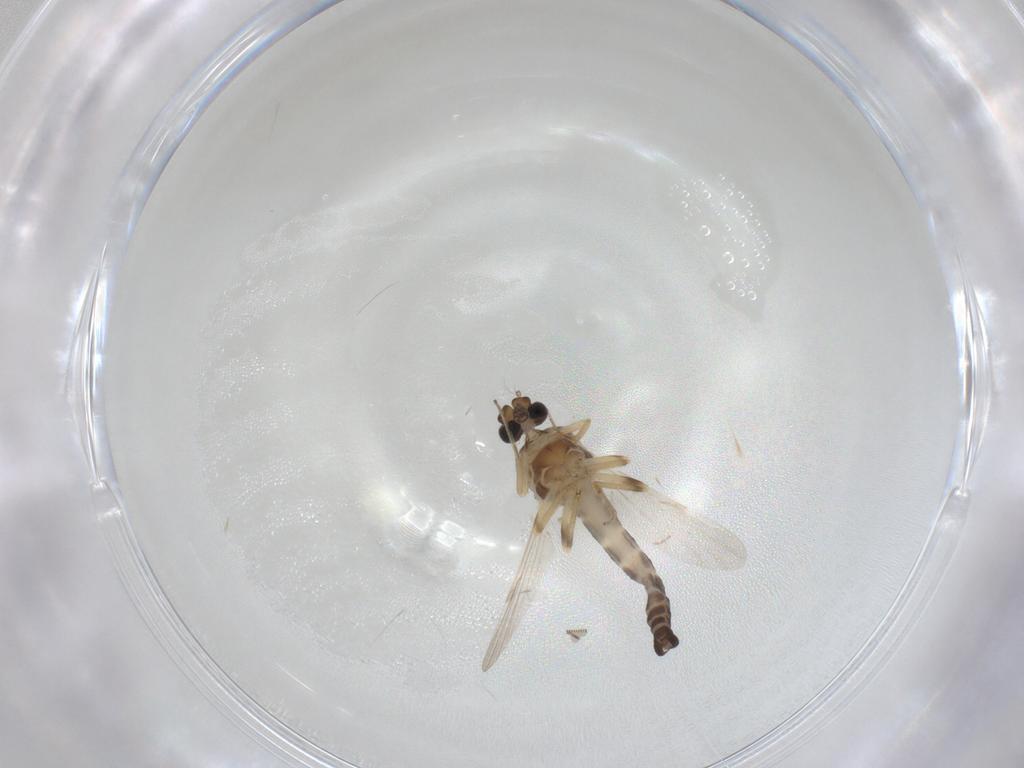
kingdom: Animalia
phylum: Arthropoda
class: Insecta
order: Diptera
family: Ceratopogonidae
